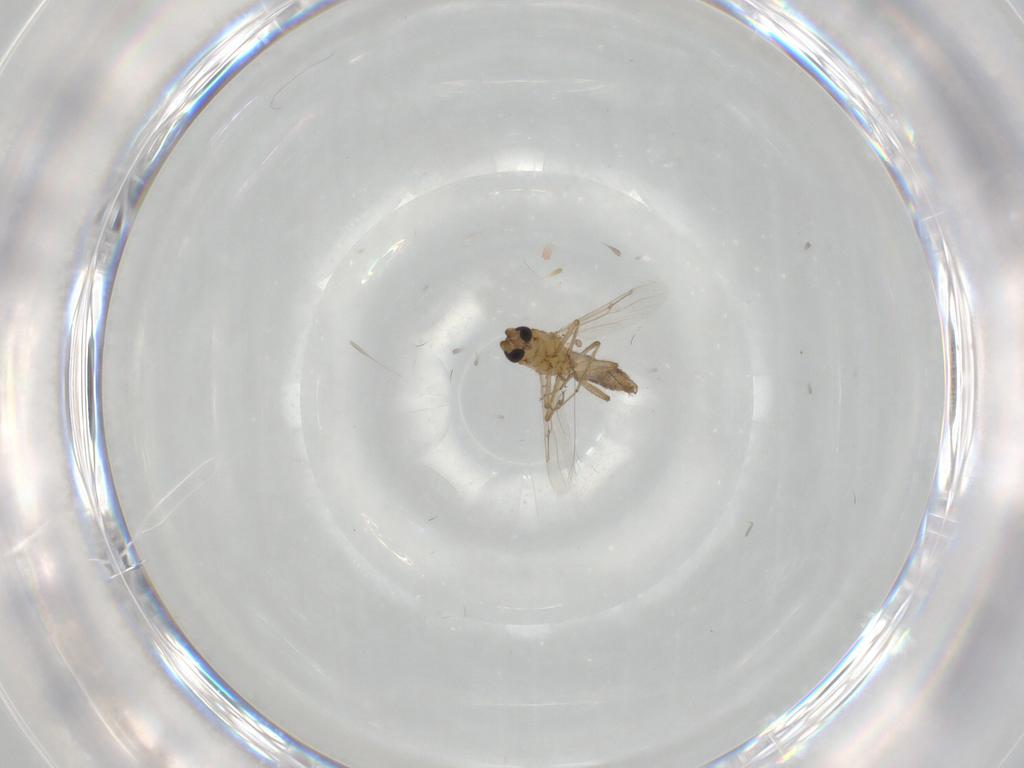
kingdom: Animalia
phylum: Arthropoda
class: Insecta
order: Diptera
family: Ceratopogonidae
